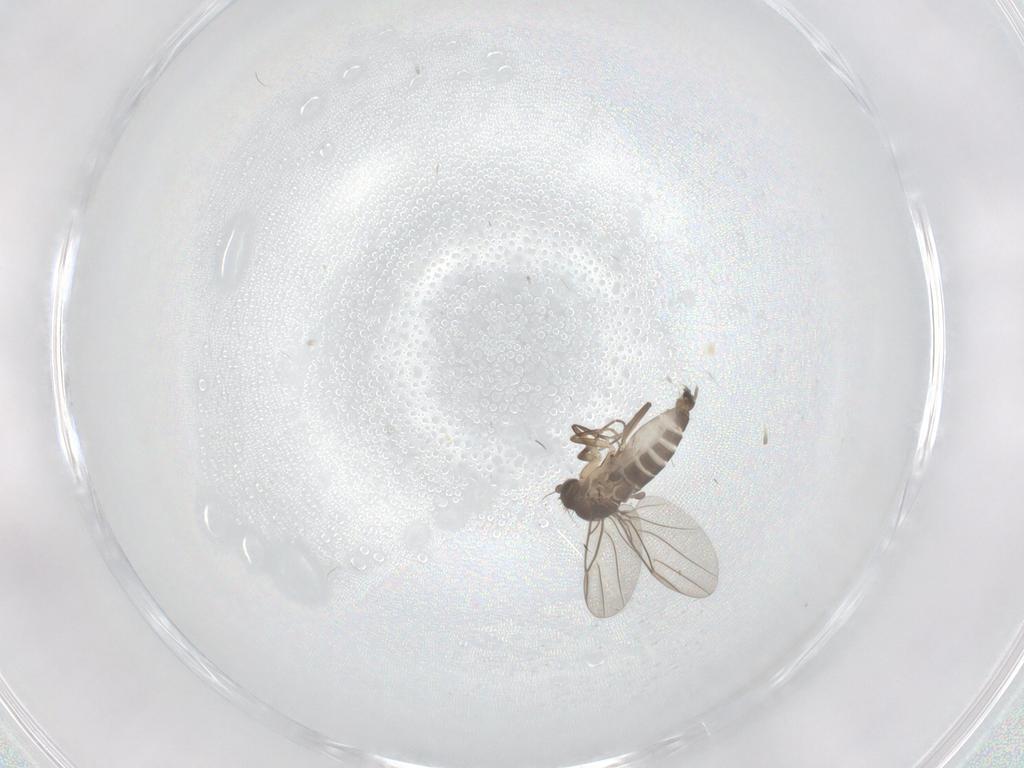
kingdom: Animalia
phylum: Arthropoda
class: Insecta
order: Diptera
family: Phoridae
